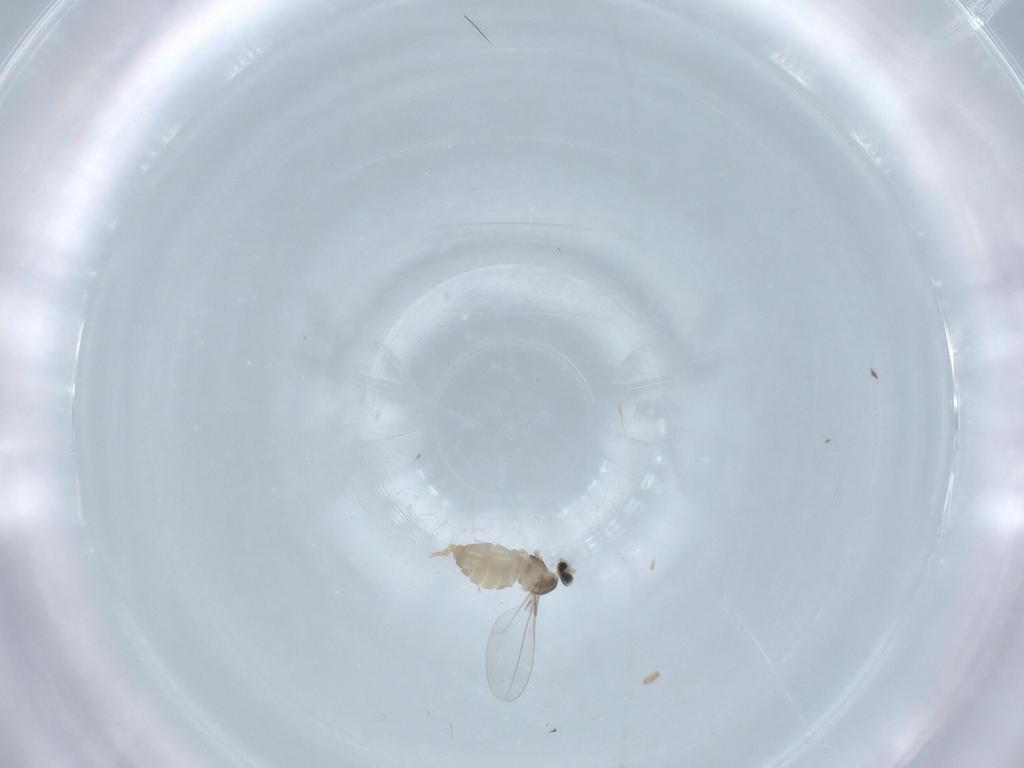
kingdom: Animalia
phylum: Arthropoda
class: Insecta
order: Diptera
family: Cecidomyiidae
